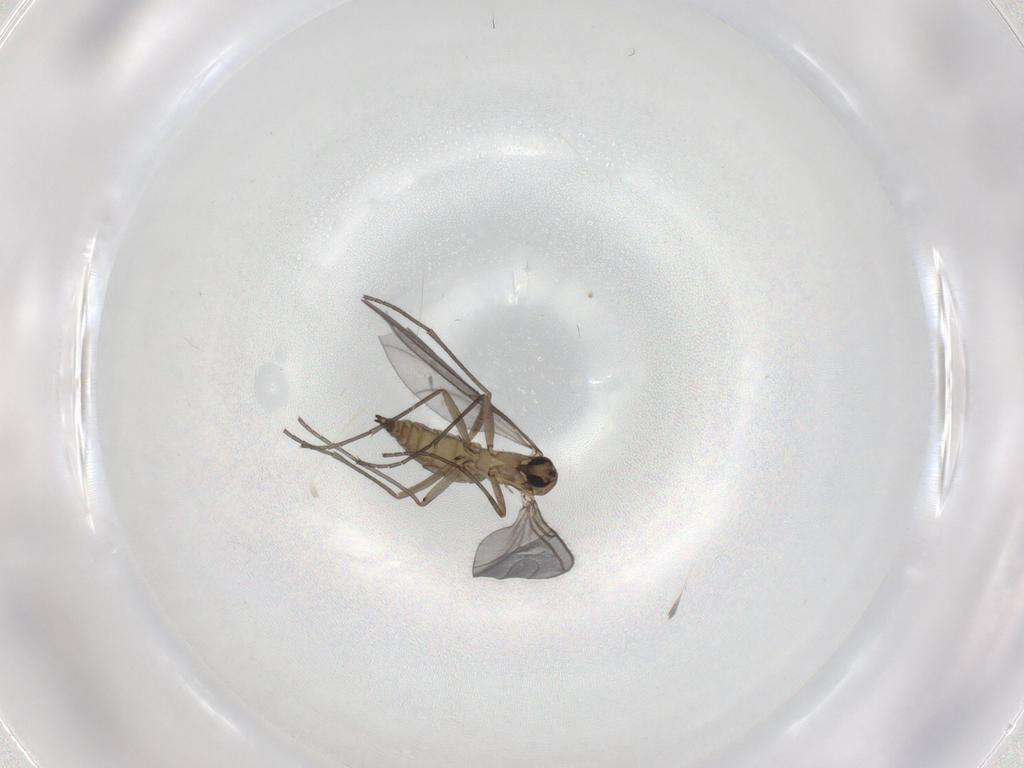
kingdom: Animalia
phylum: Arthropoda
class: Insecta
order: Diptera
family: Sciaridae
